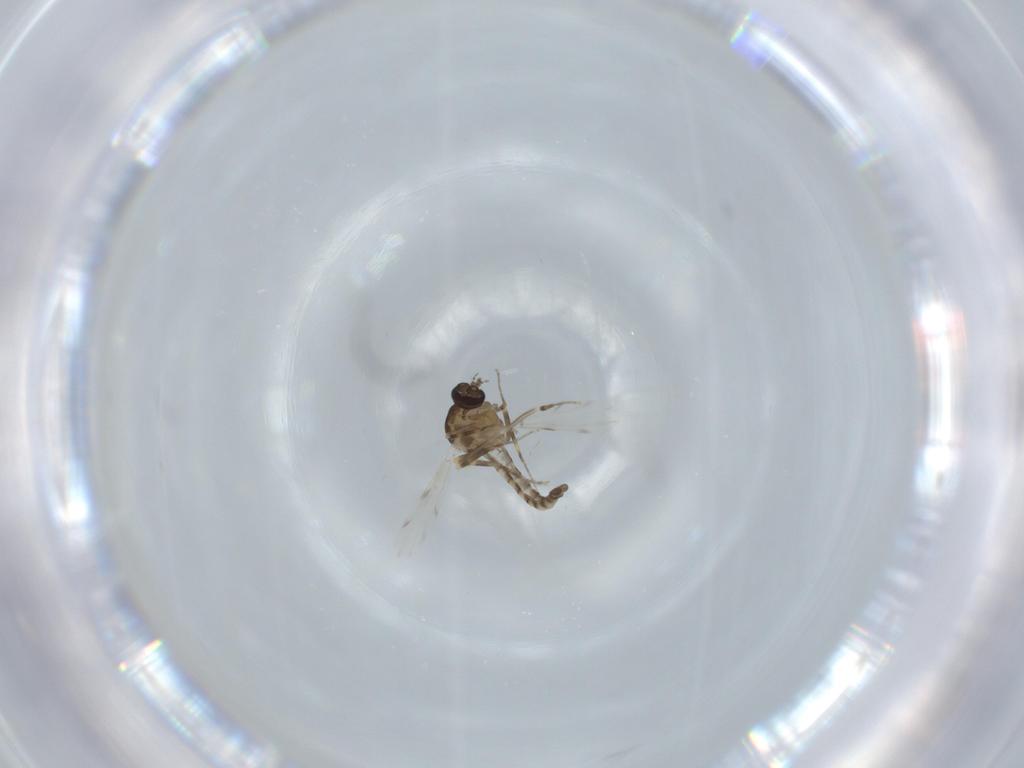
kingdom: Animalia
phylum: Arthropoda
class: Insecta
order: Diptera
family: Ceratopogonidae
